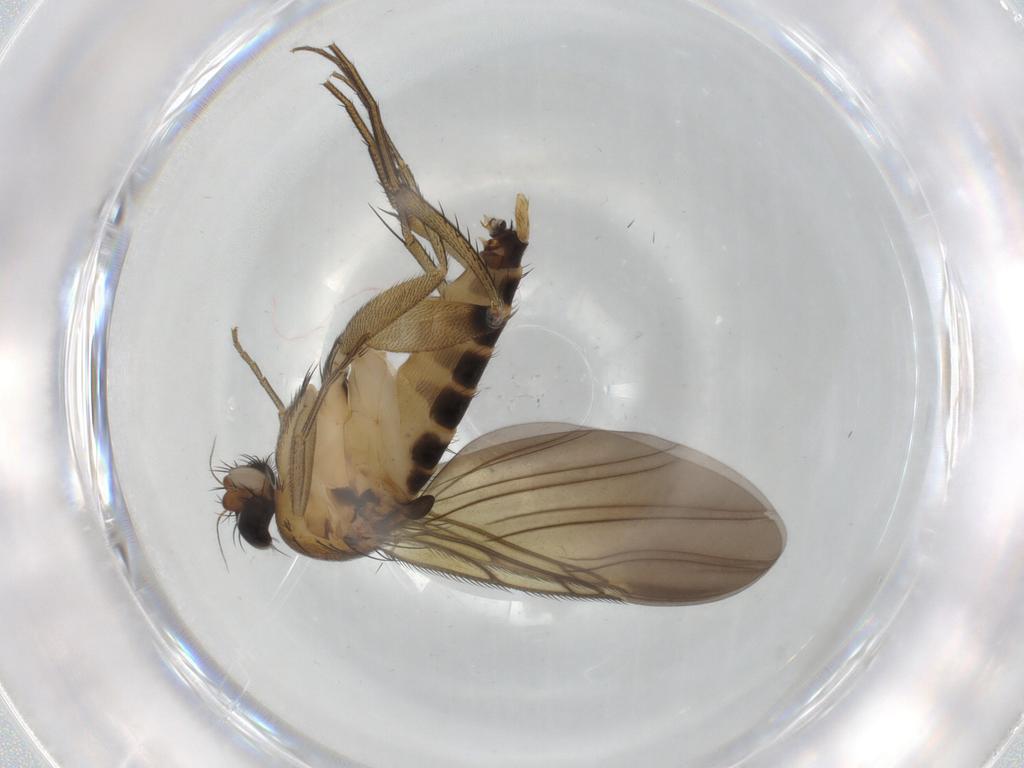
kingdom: Animalia
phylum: Arthropoda
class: Insecta
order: Diptera
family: Phoridae
